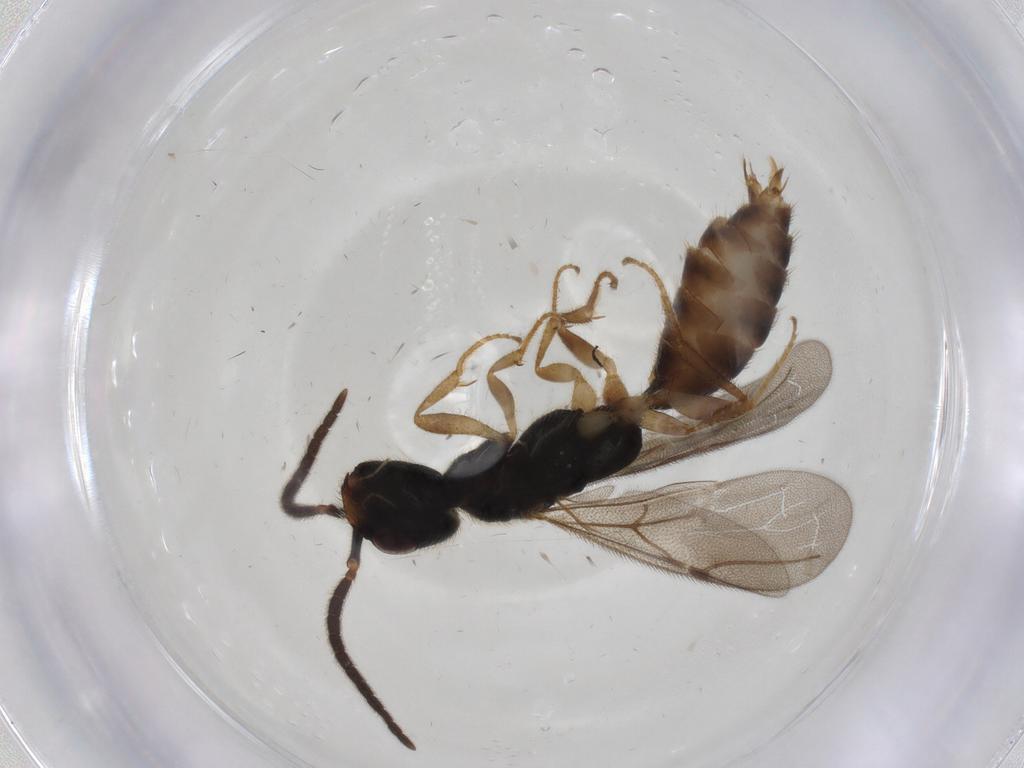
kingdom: Animalia
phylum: Arthropoda
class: Insecta
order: Hymenoptera
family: Bethylidae
